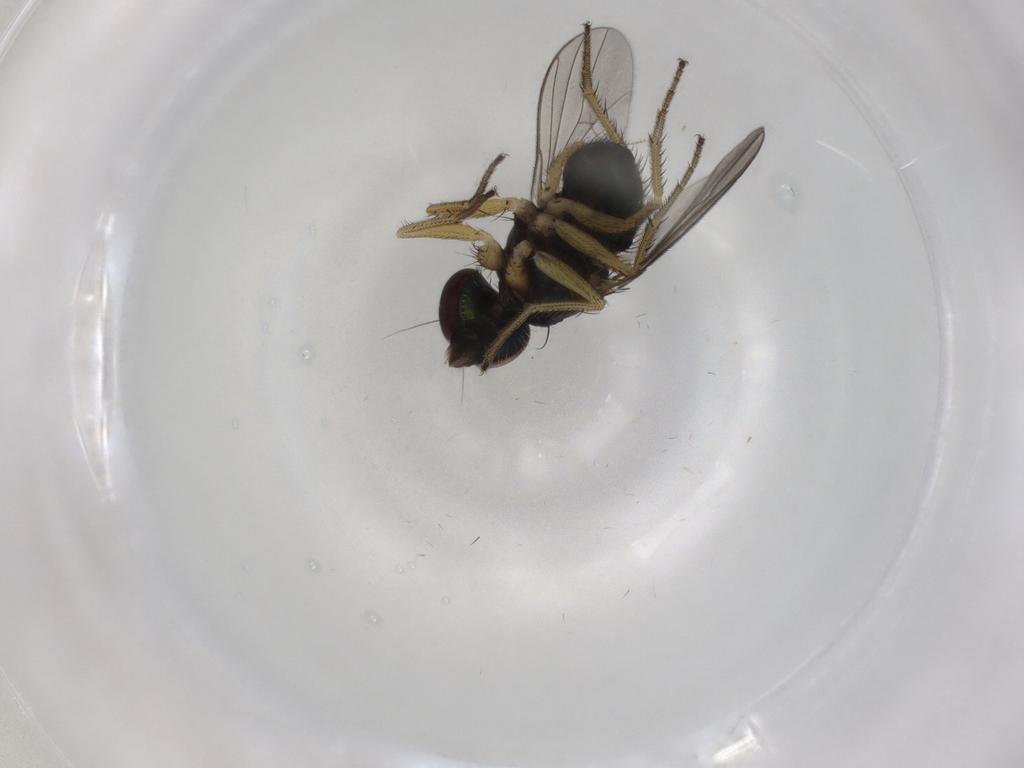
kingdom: Animalia
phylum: Arthropoda
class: Insecta
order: Diptera
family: Dolichopodidae
